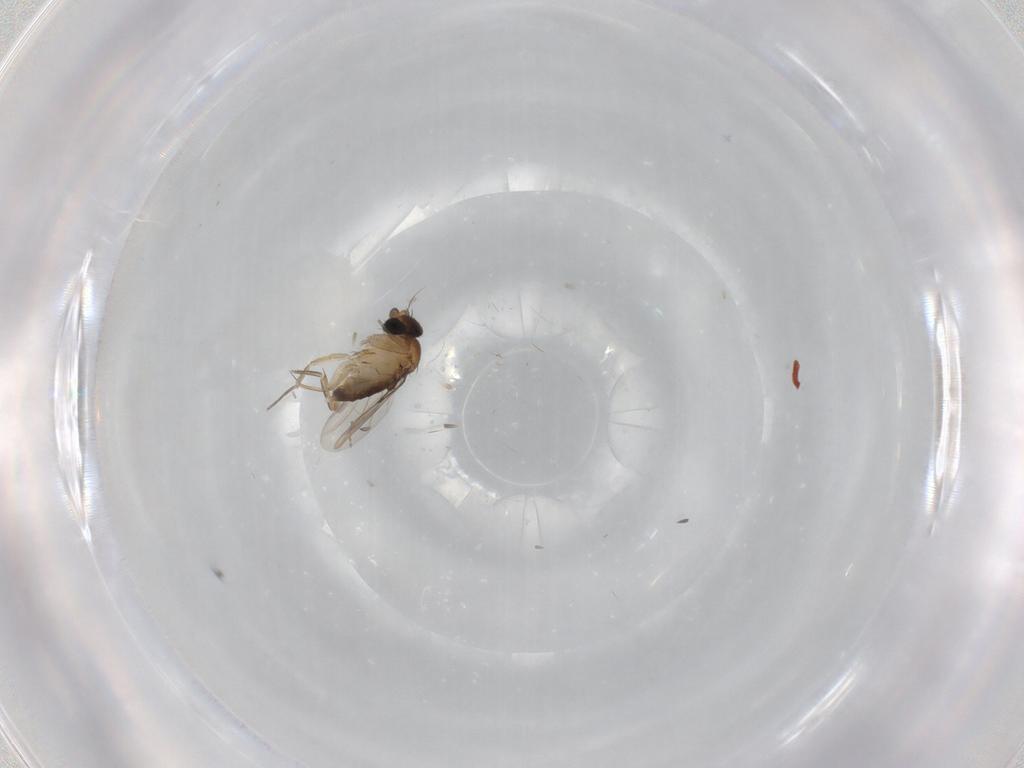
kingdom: Animalia
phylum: Arthropoda
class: Insecta
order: Diptera
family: Phoridae
